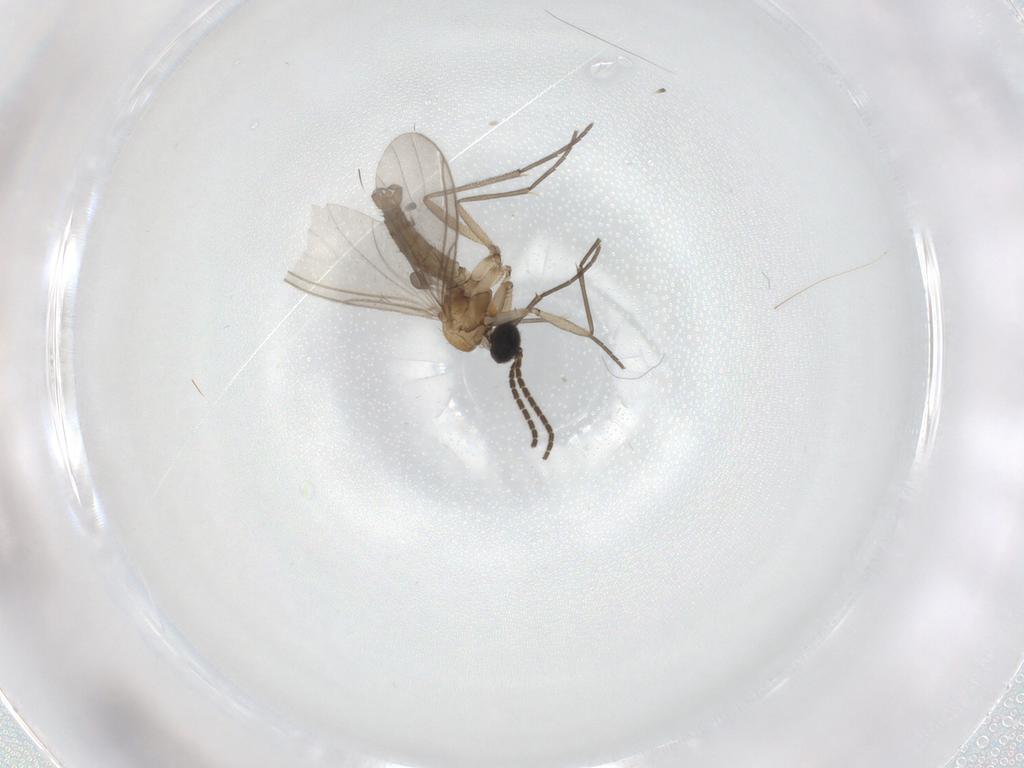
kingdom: Animalia
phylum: Arthropoda
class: Insecta
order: Diptera
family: Sciaridae
